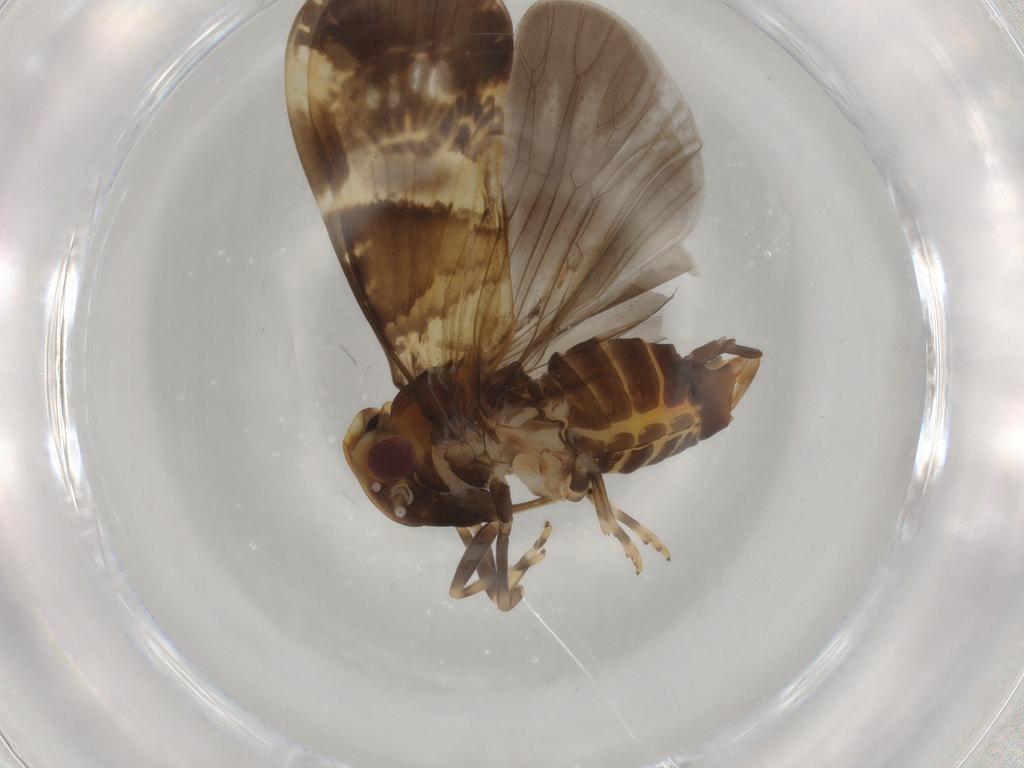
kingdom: Animalia
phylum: Arthropoda
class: Insecta
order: Hemiptera
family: Cixiidae
